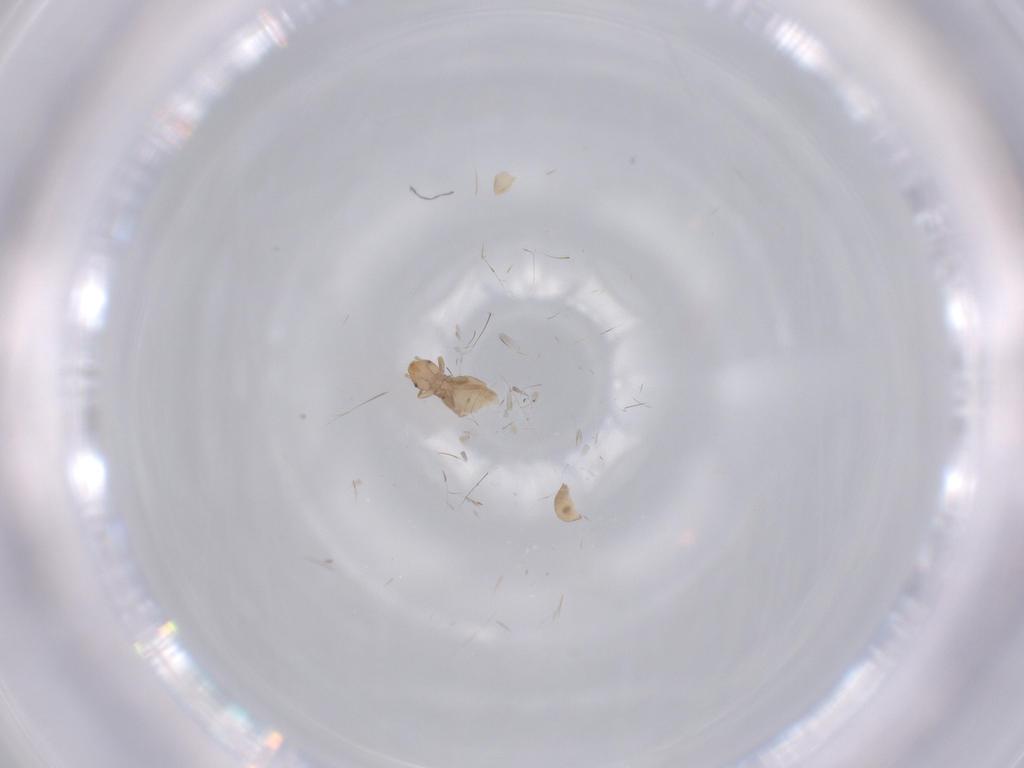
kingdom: Animalia
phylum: Arthropoda
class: Insecta
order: Psocodea
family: Liposcelididae
